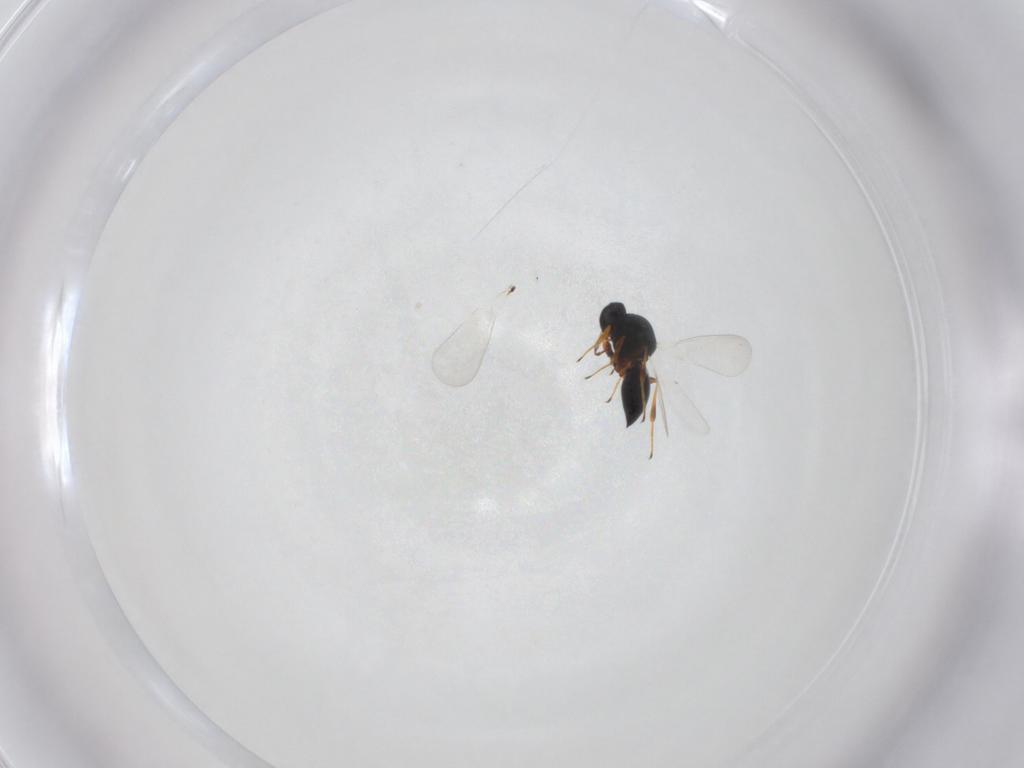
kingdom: Animalia
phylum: Arthropoda
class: Insecta
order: Hymenoptera
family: Platygastridae
